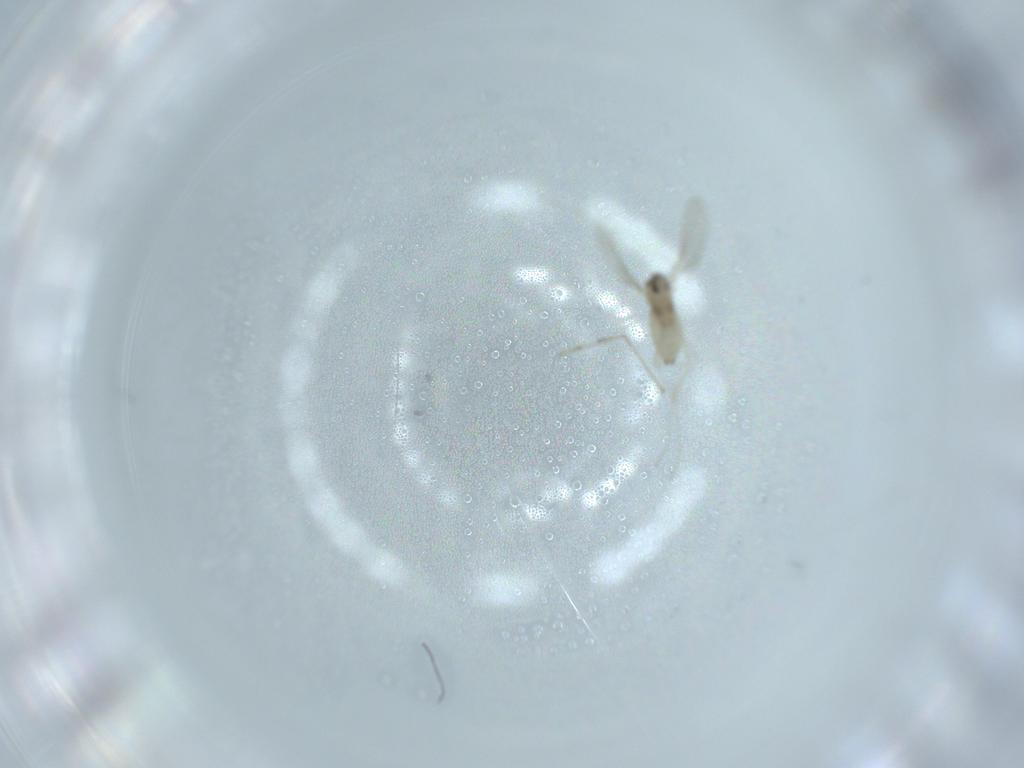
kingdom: Animalia
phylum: Arthropoda
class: Insecta
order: Diptera
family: Cecidomyiidae
